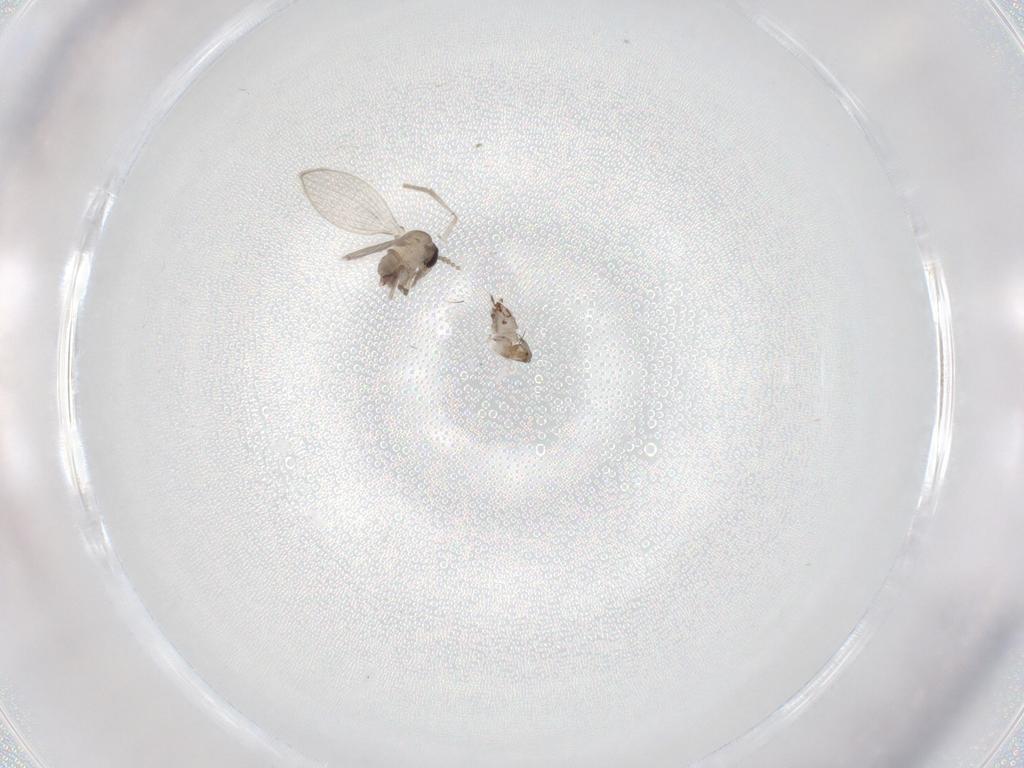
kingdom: Animalia
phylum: Arthropoda
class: Insecta
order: Diptera
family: Psychodidae
